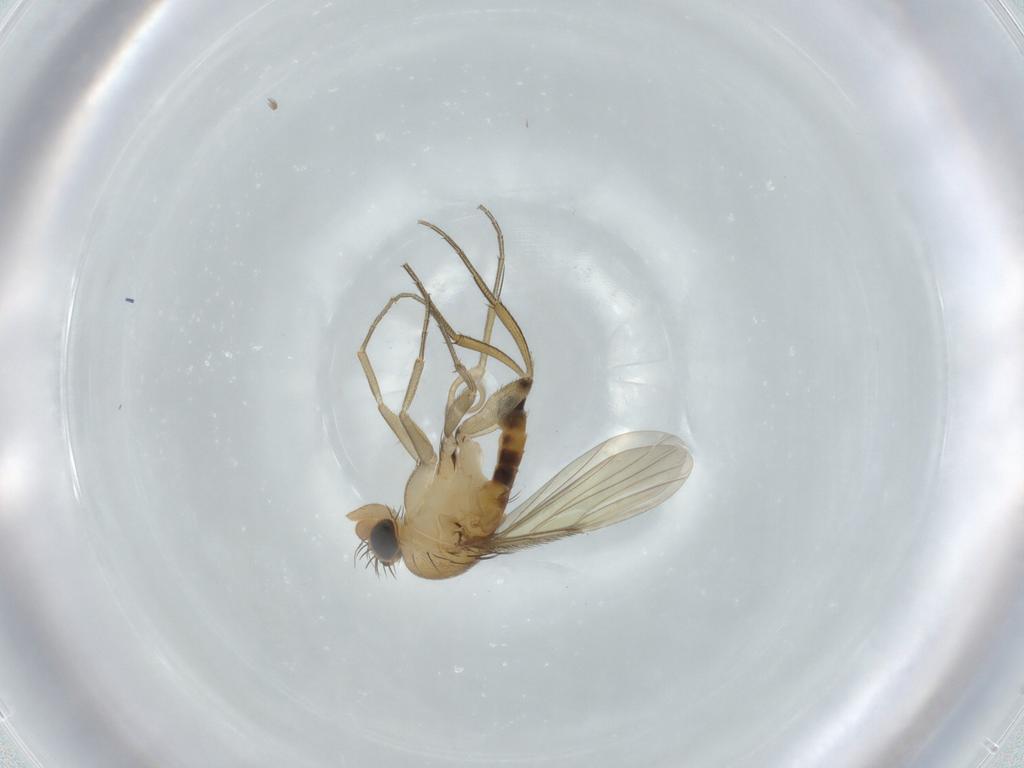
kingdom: Animalia
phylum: Arthropoda
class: Insecta
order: Diptera
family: Phoridae
